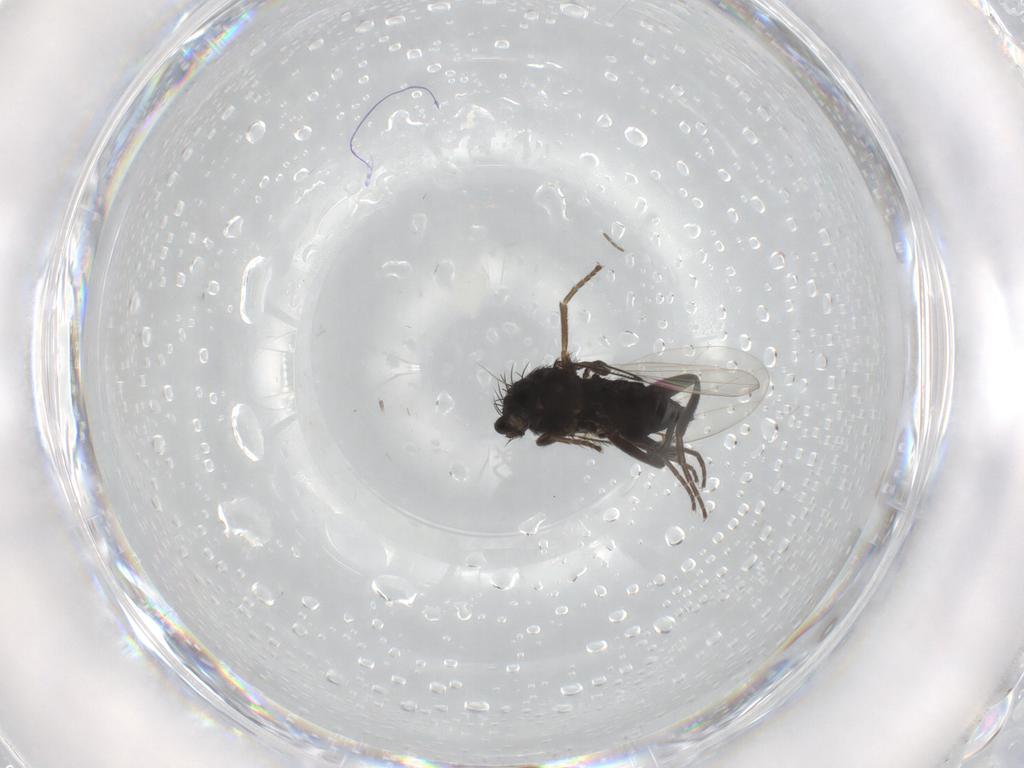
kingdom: Animalia
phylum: Arthropoda
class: Insecta
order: Diptera
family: Phoridae
